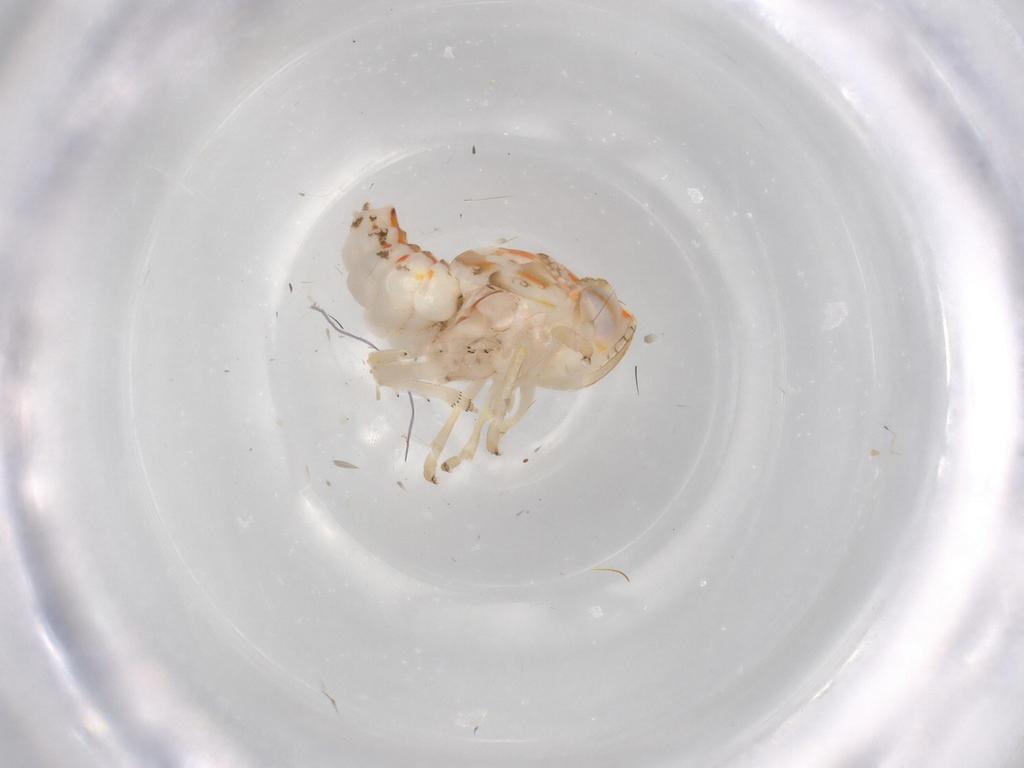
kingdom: Animalia
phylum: Arthropoda
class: Insecta
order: Hemiptera
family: Nogodinidae
